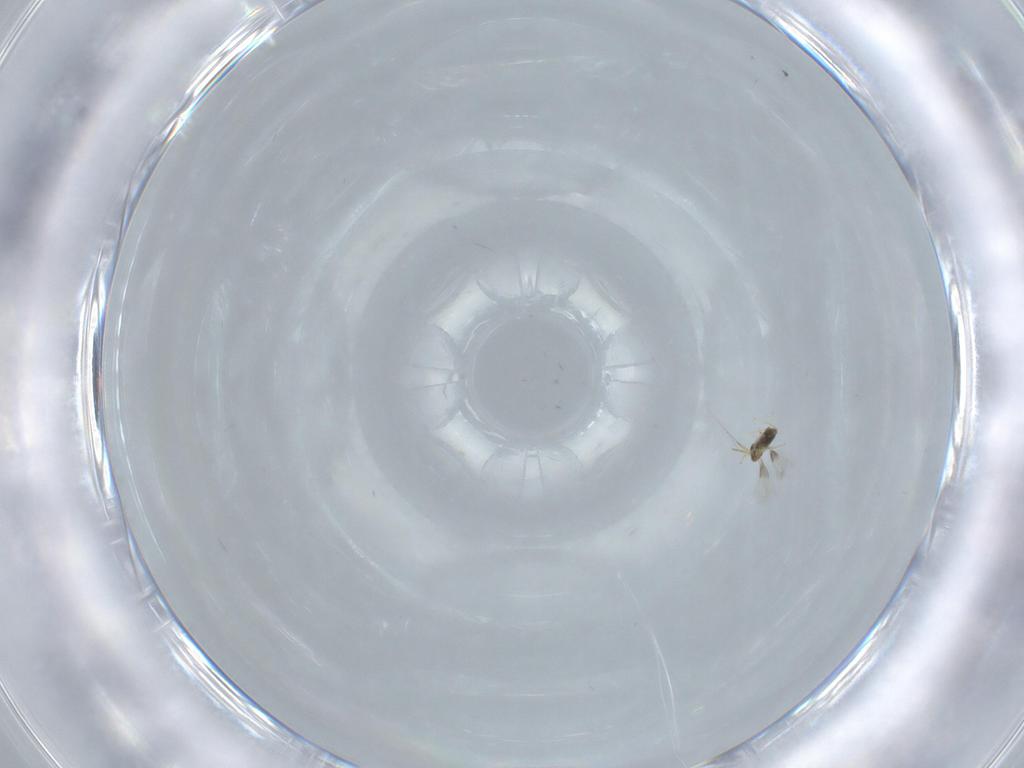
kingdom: Animalia
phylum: Arthropoda
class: Insecta
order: Hymenoptera
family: Aphelinidae
